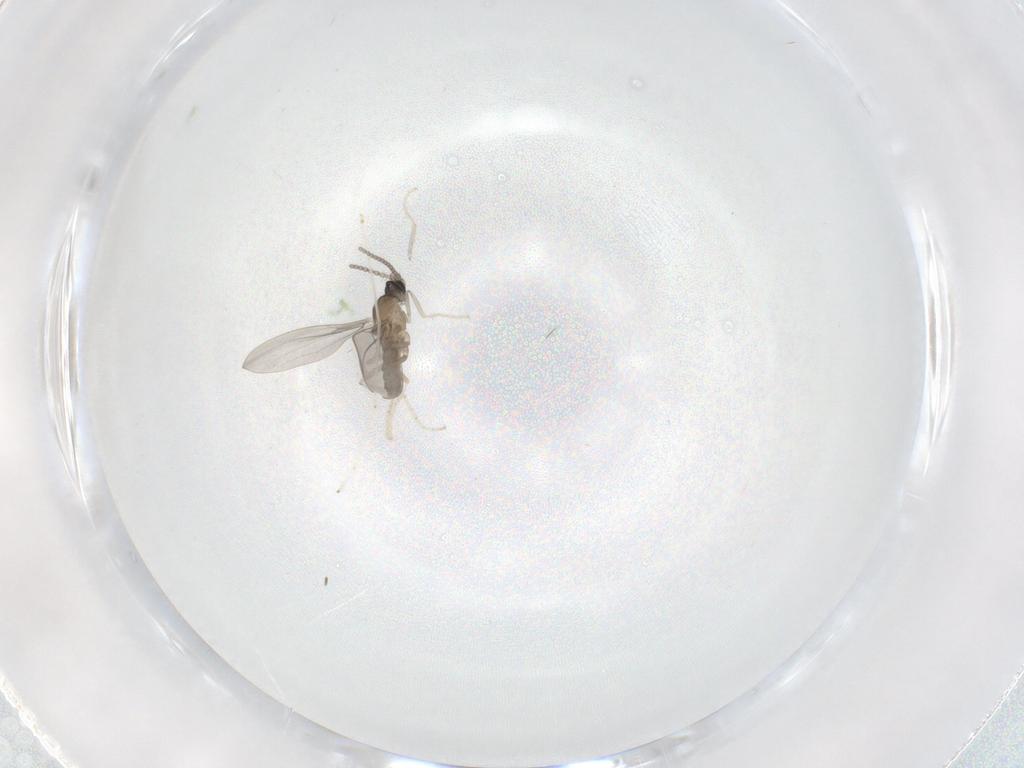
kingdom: Animalia
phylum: Arthropoda
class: Insecta
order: Diptera
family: Cecidomyiidae
